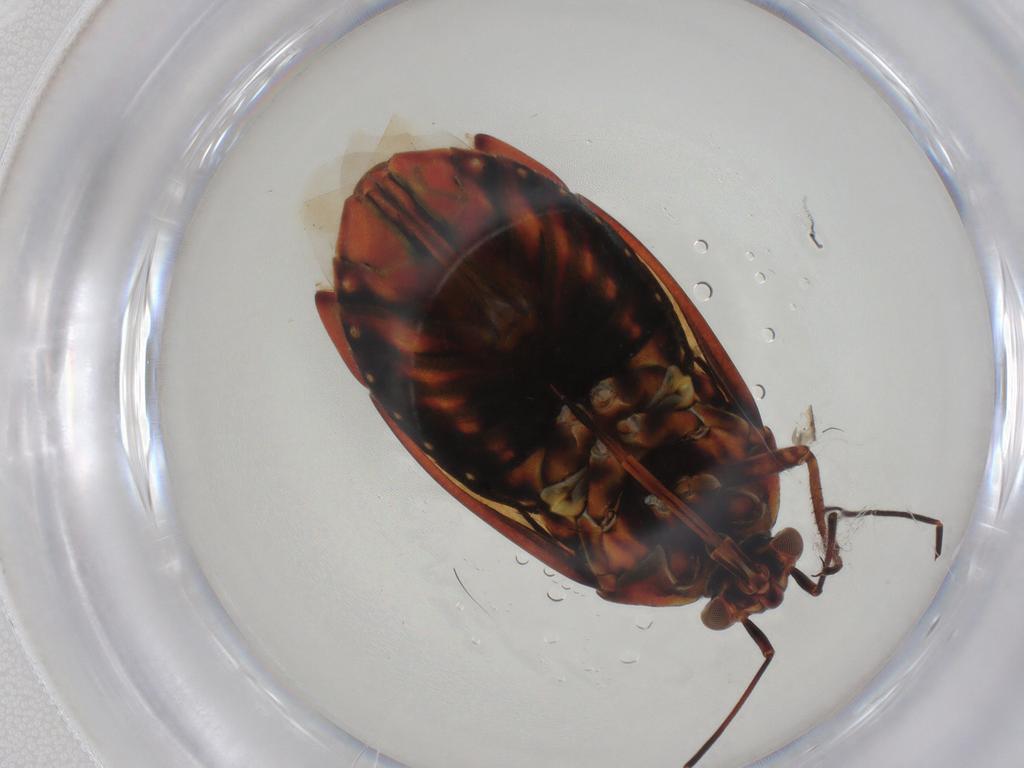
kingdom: Animalia
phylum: Arthropoda
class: Insecta
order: Hemiptera
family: Miridae
